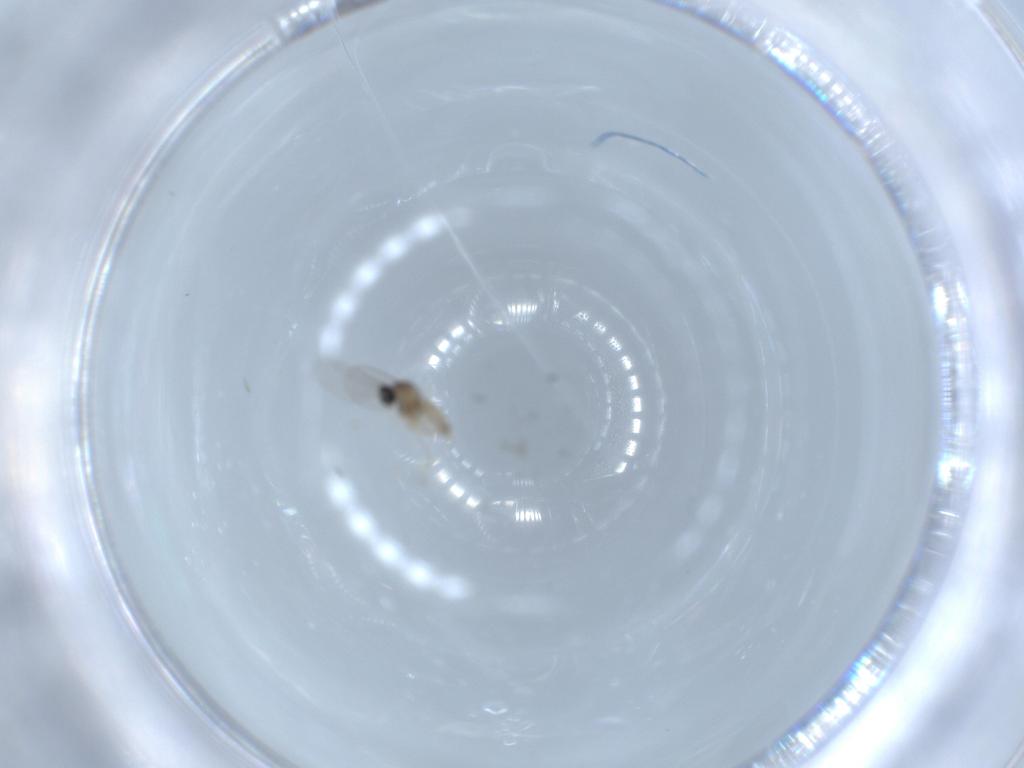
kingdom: Animalia
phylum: Arthropoda
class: Insecta
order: Diptera
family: Cecidomyiidae
